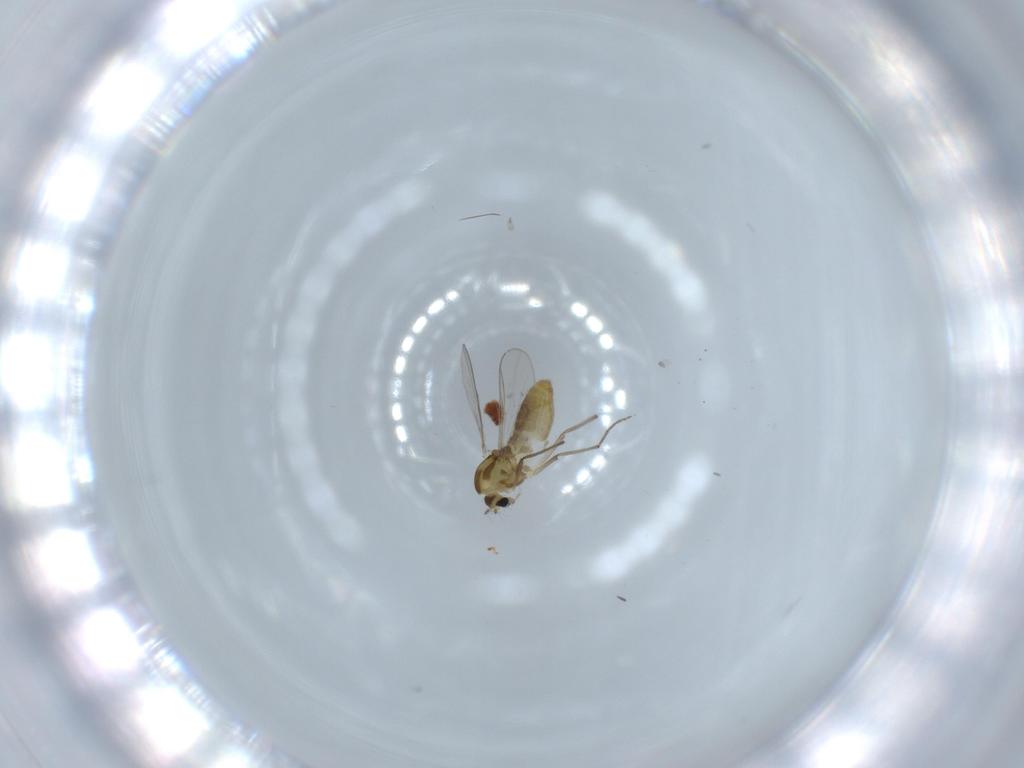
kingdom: Animalia
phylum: Arthropoda
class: Insecta
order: Diptera
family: Chironomidae
